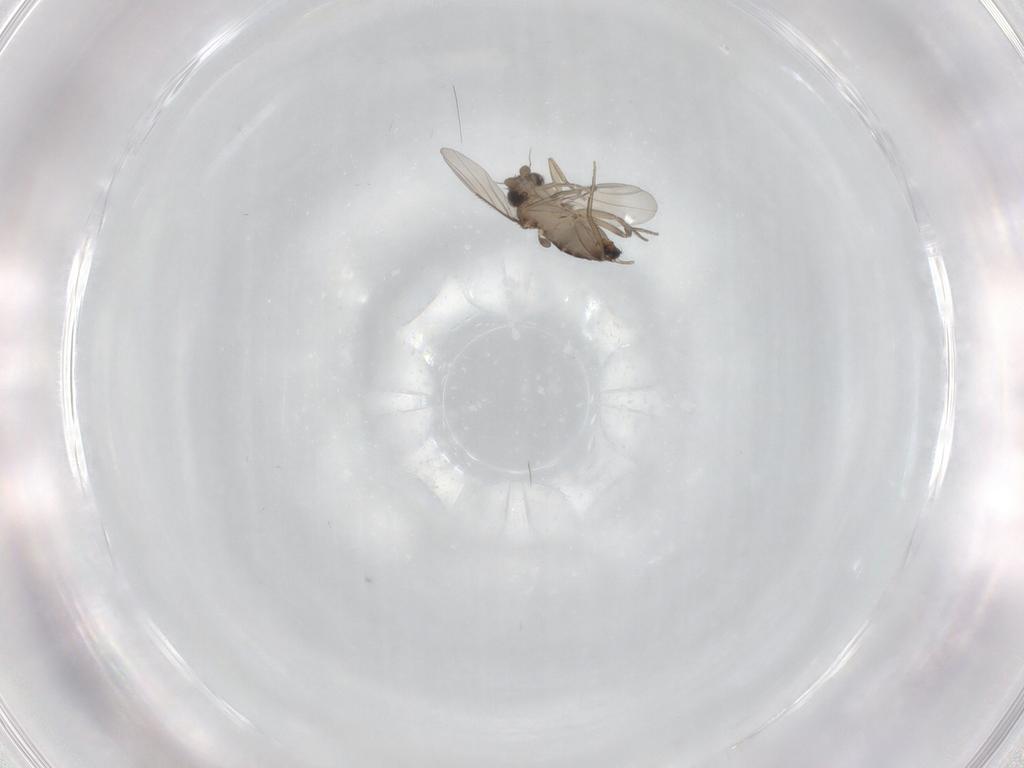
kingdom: Animalia
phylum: Arthropoda
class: Insecta
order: Diptera
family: Phoridae
